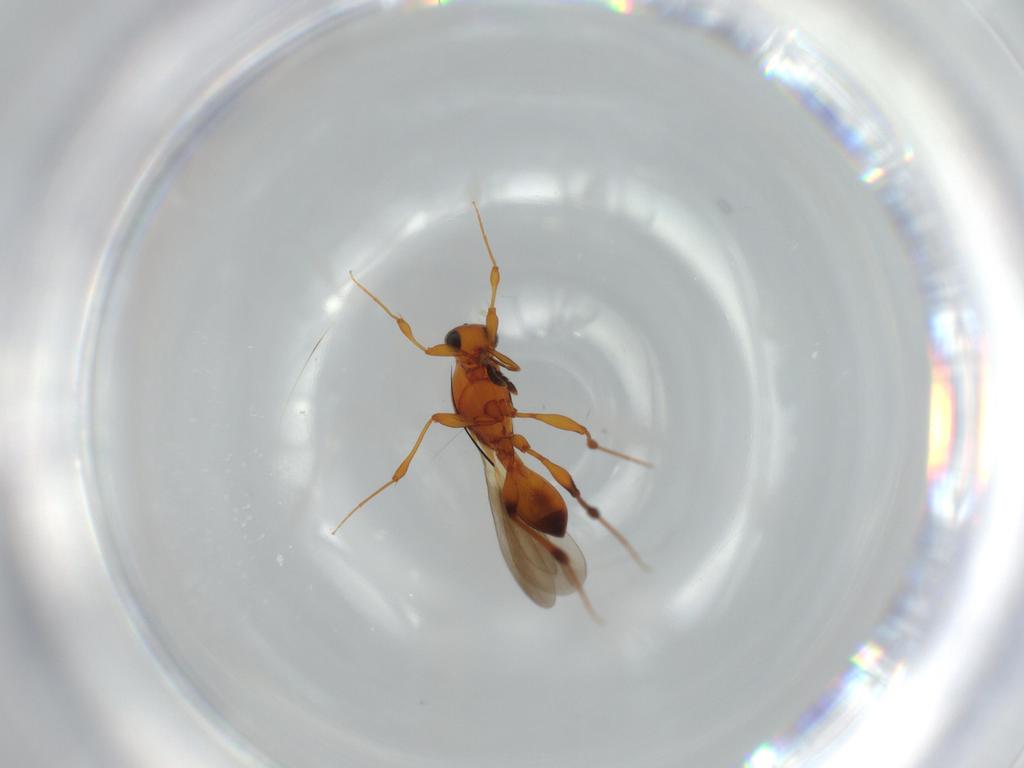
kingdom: Animalia
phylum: Arthropoda
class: Insecta
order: Hymenoptera
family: Platygastridae
